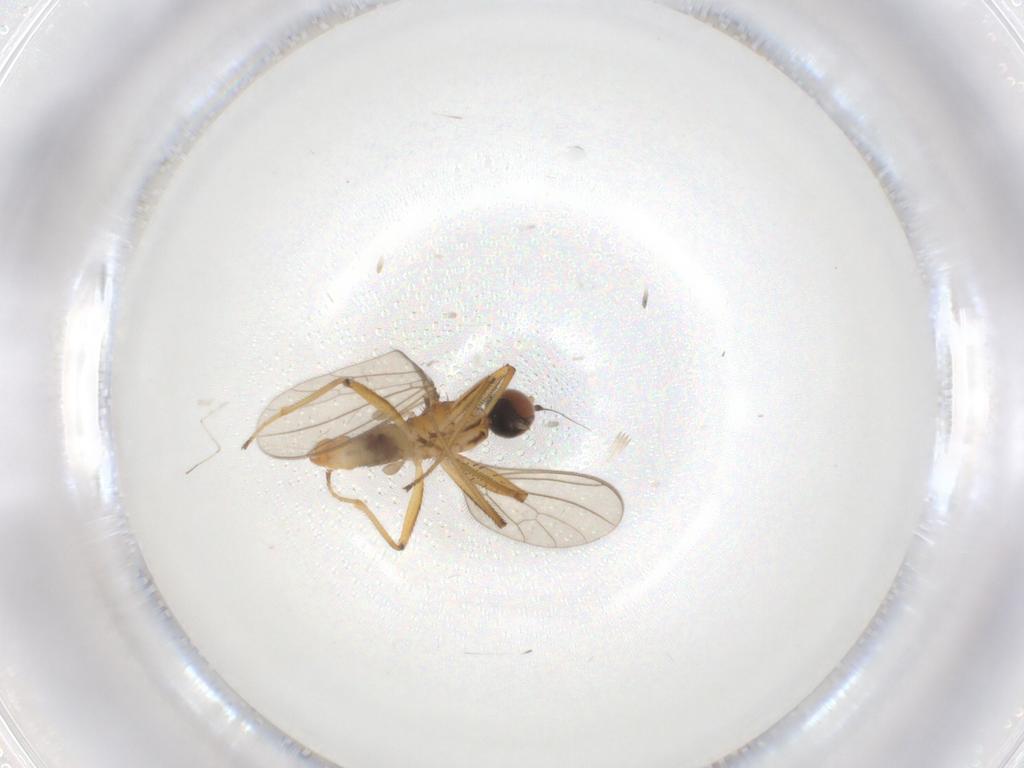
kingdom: Animalia
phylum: Arthropoda
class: Insecta
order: Diptera
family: Empididae
